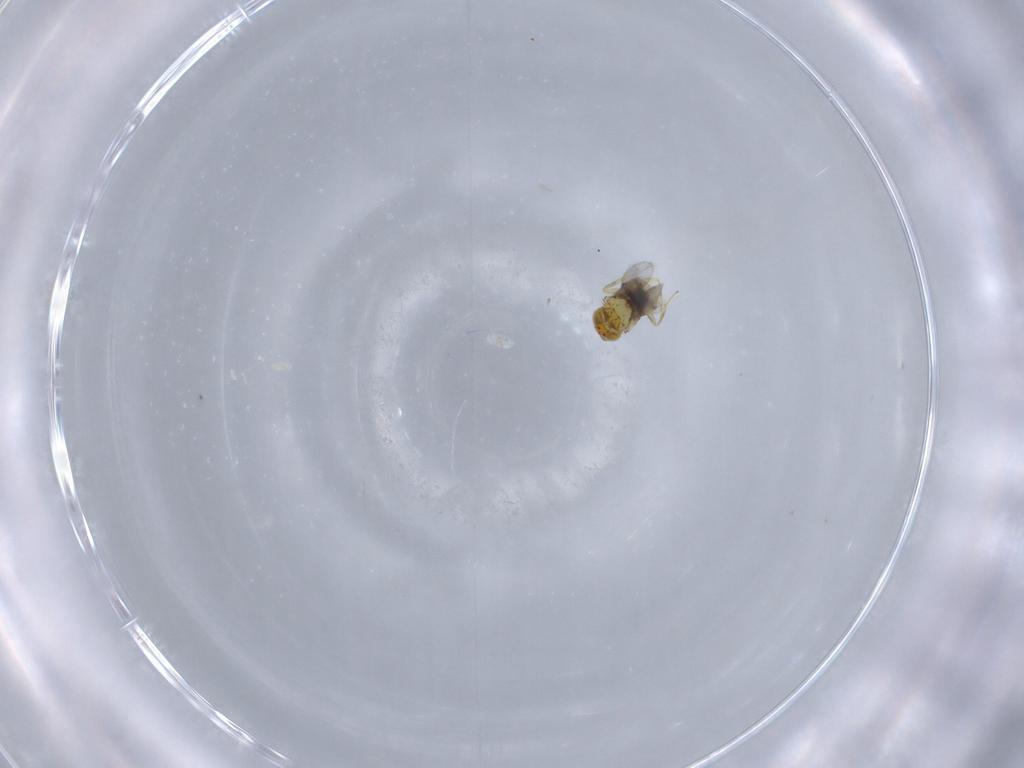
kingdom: Animalia
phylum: Arthropoda
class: Insecta
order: Hymenoptera
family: Aphelinidae
